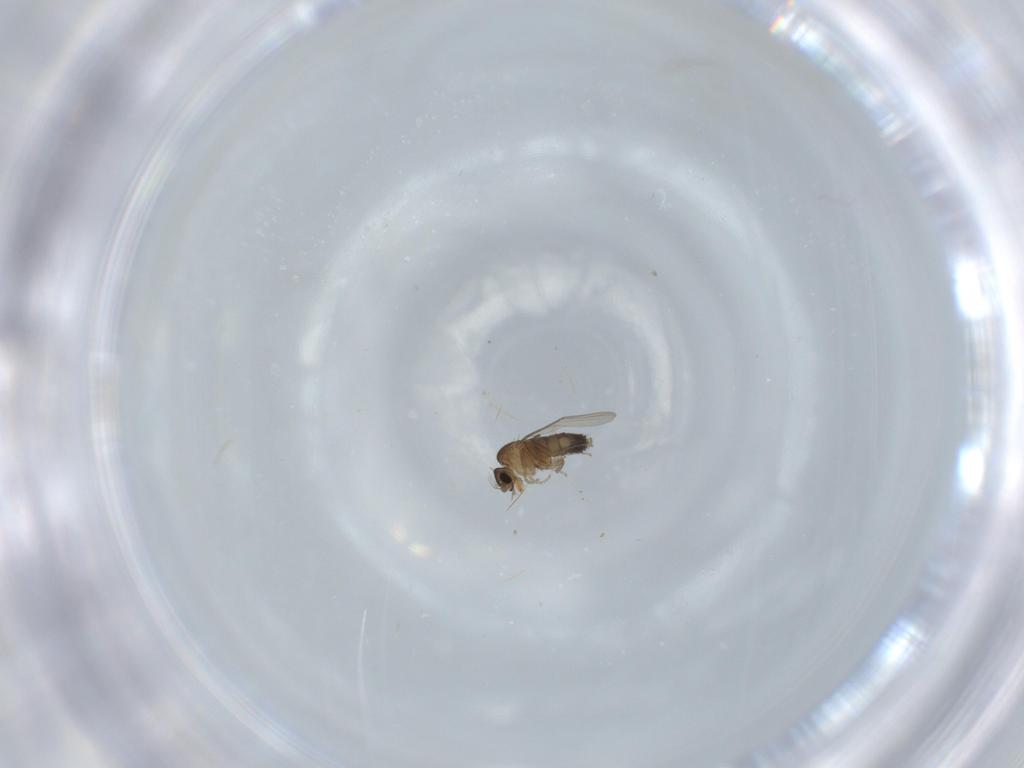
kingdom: Animalia
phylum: Arthropoda
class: Insecta
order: Diptera
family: Phoridae
